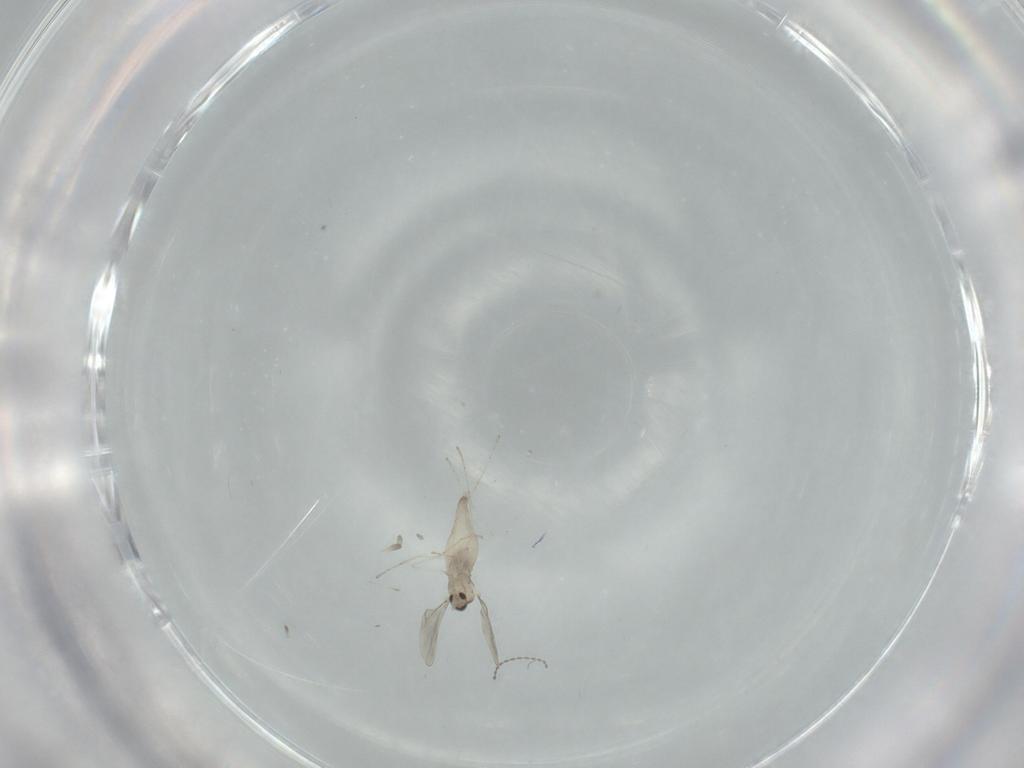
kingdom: Animalia
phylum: Arthropoda
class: Insecta
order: Diptera
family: Cecidomyiidae
